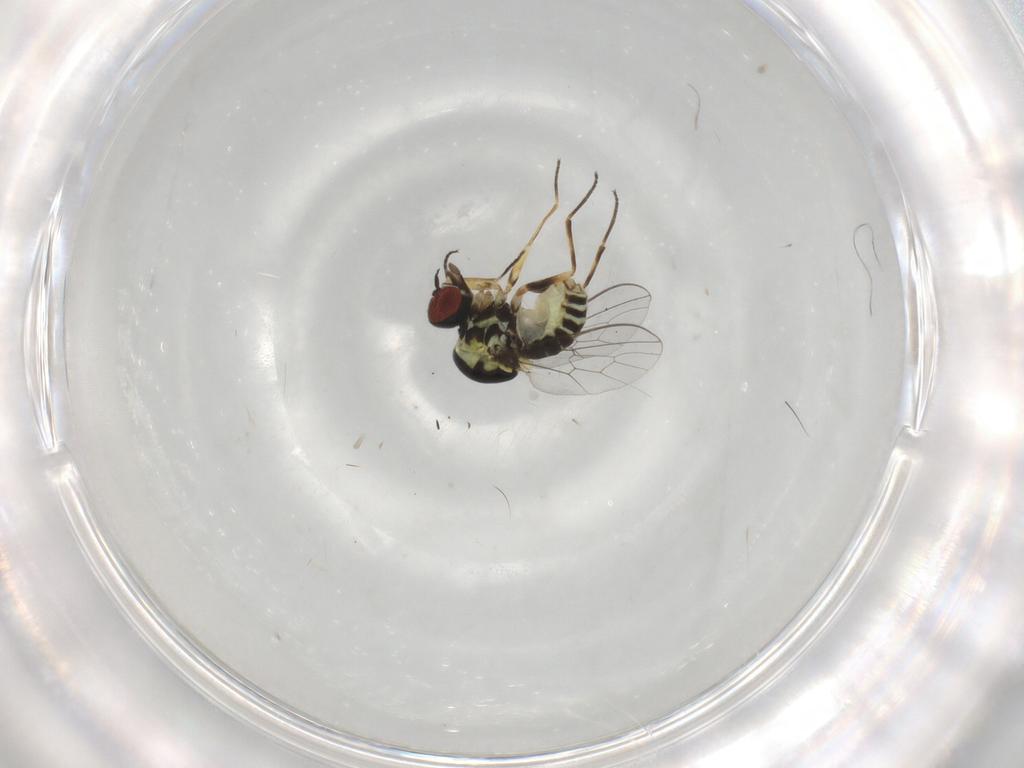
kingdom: Animalia
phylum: Arthropoda
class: Insecta
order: Diptera
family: Bombyliidae
